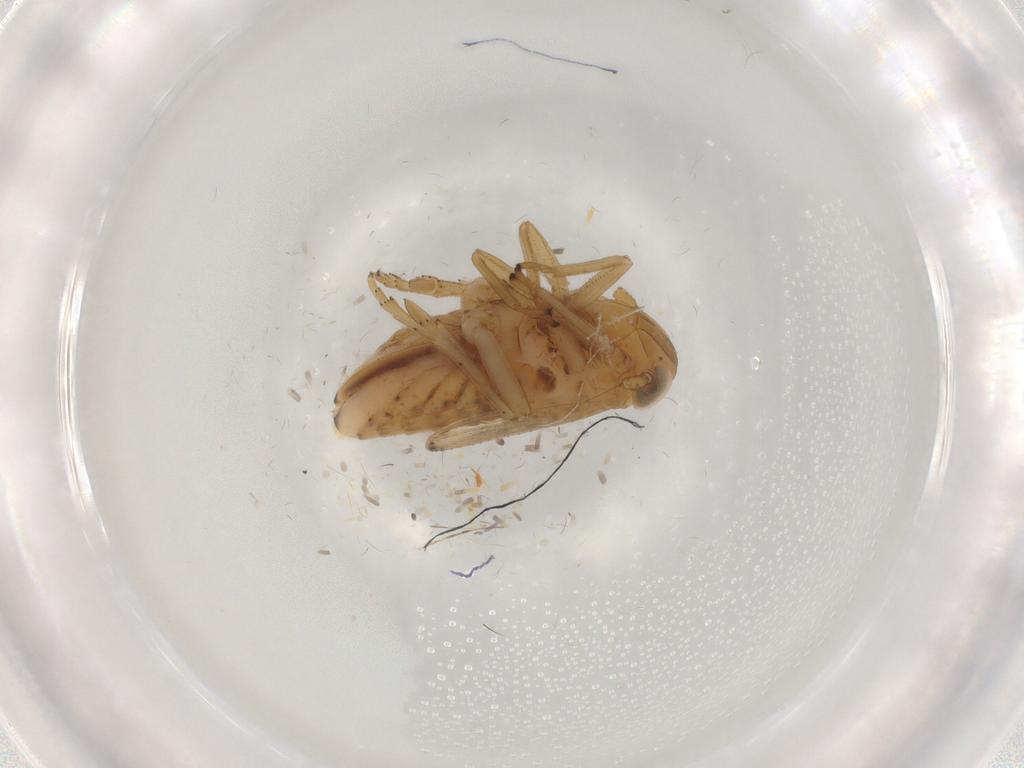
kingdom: Animalia
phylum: Arthropoda
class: Insecta
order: Hemiptera
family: Delphacidae
